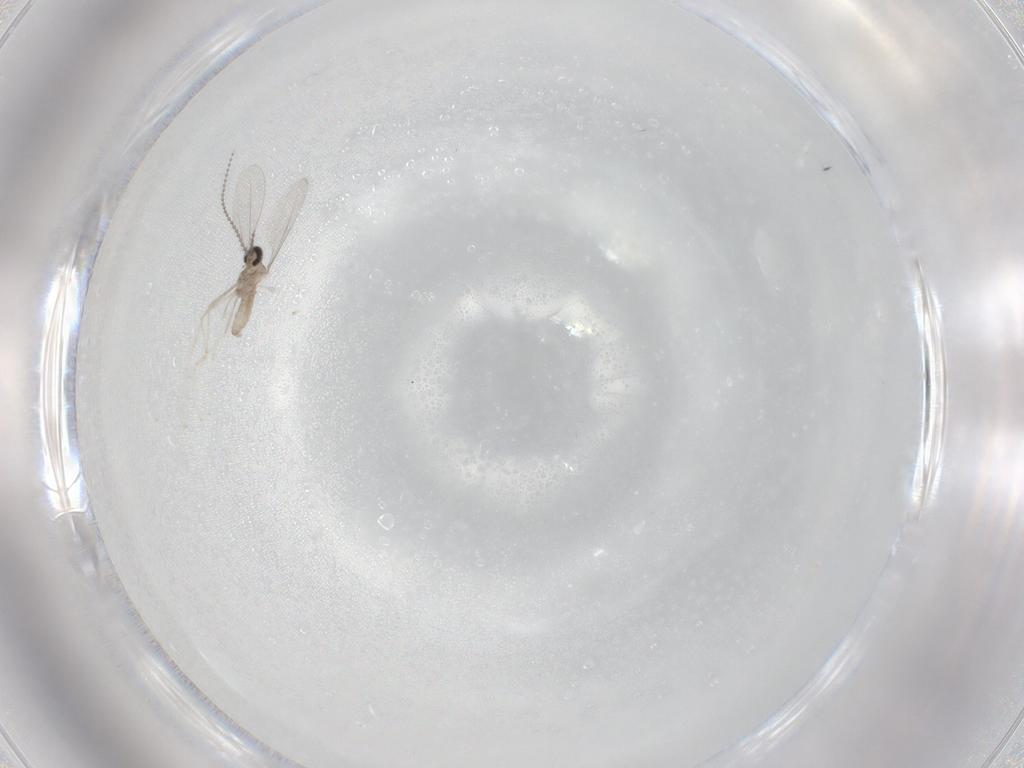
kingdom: Animalia
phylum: Arthropoda
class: Insecta
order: Diptera
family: Cecidomyiidae
